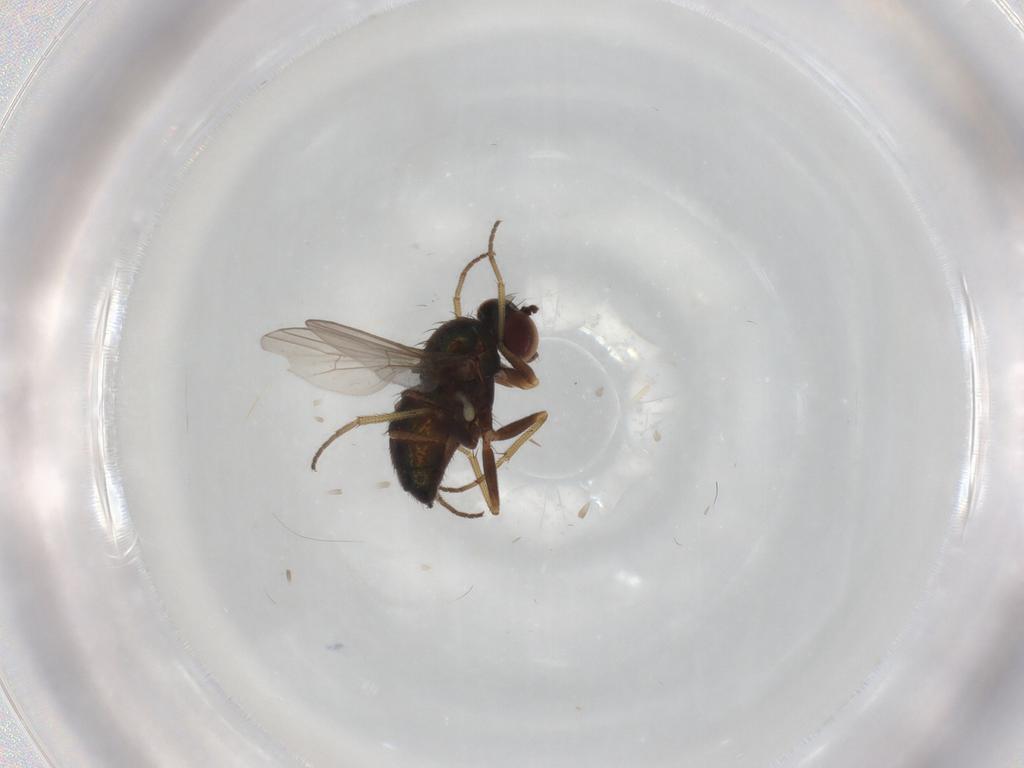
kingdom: Animalia
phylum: Arthropoda
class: Insecta
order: Diptera
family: Dolichopodidae
